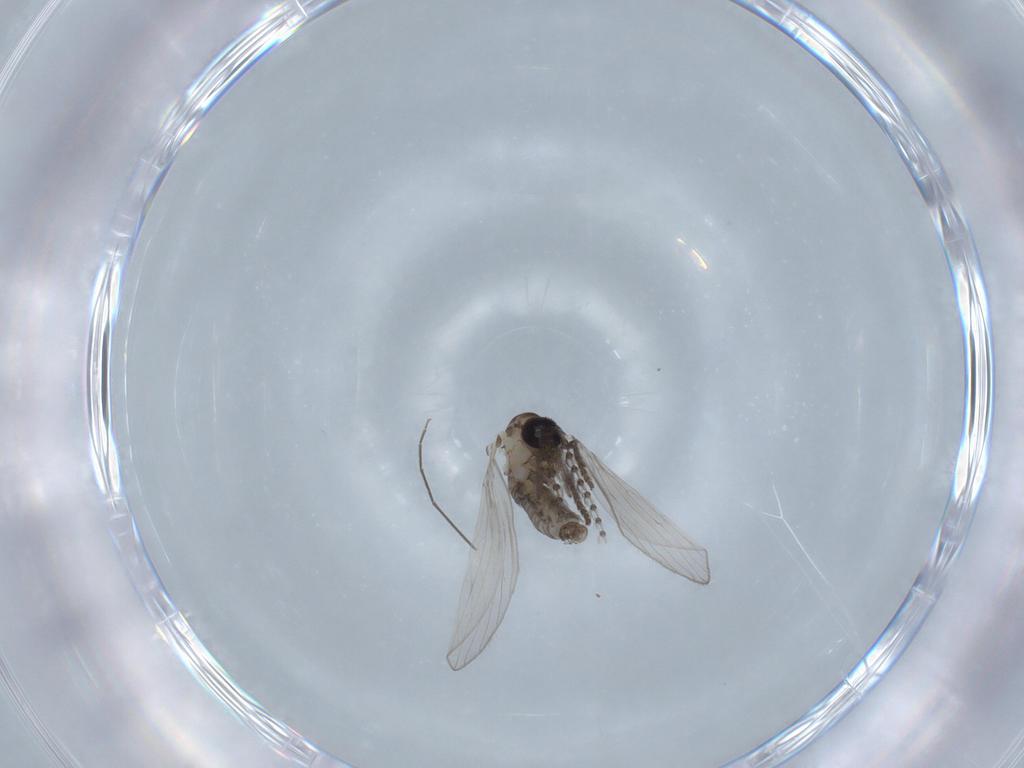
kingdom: Animalia
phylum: Arthropoda
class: Insecta
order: Diptera
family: Psychodidae
